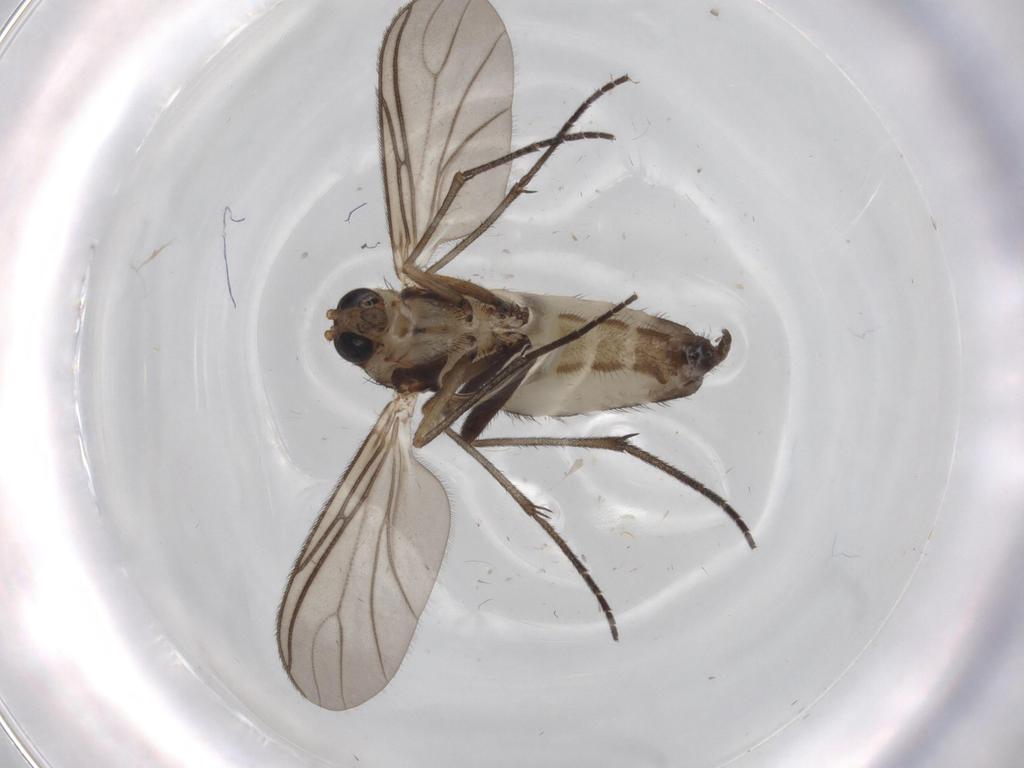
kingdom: Animalia
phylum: Arthropoda
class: Insecta
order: Diptera
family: Sciaridae
